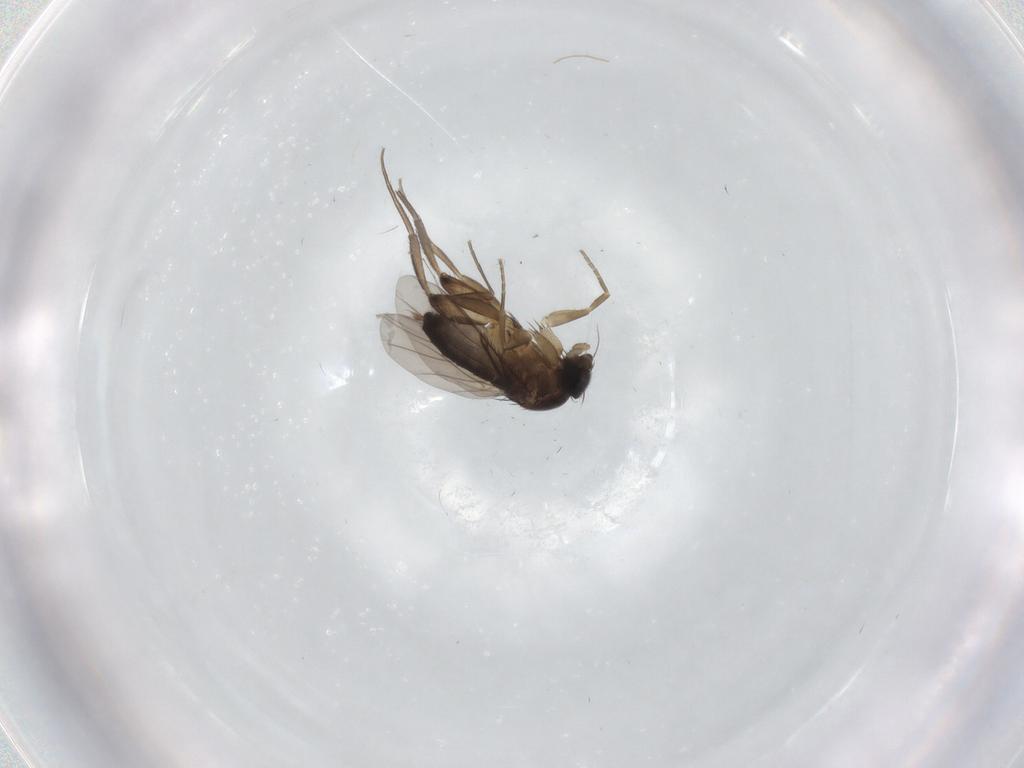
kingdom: Animalia
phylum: Arthropoda
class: Insecta
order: Diptera
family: Phoridae
